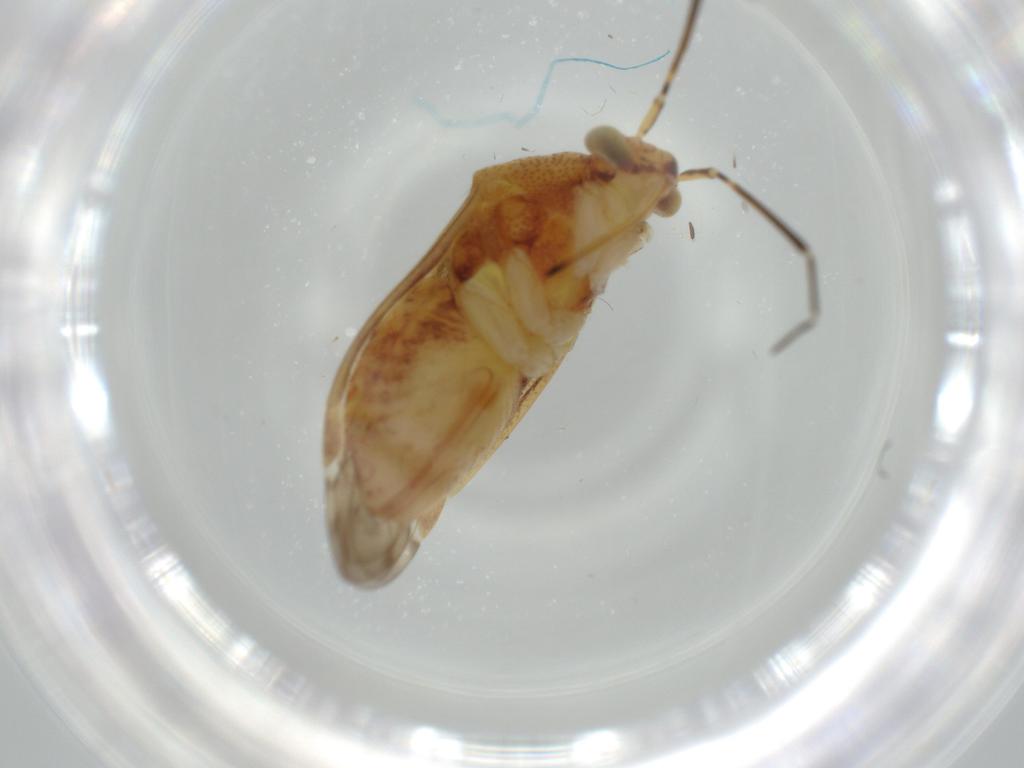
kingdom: Animalia
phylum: Arthropoda
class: Insecta
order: Hemiptera
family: Miridae
